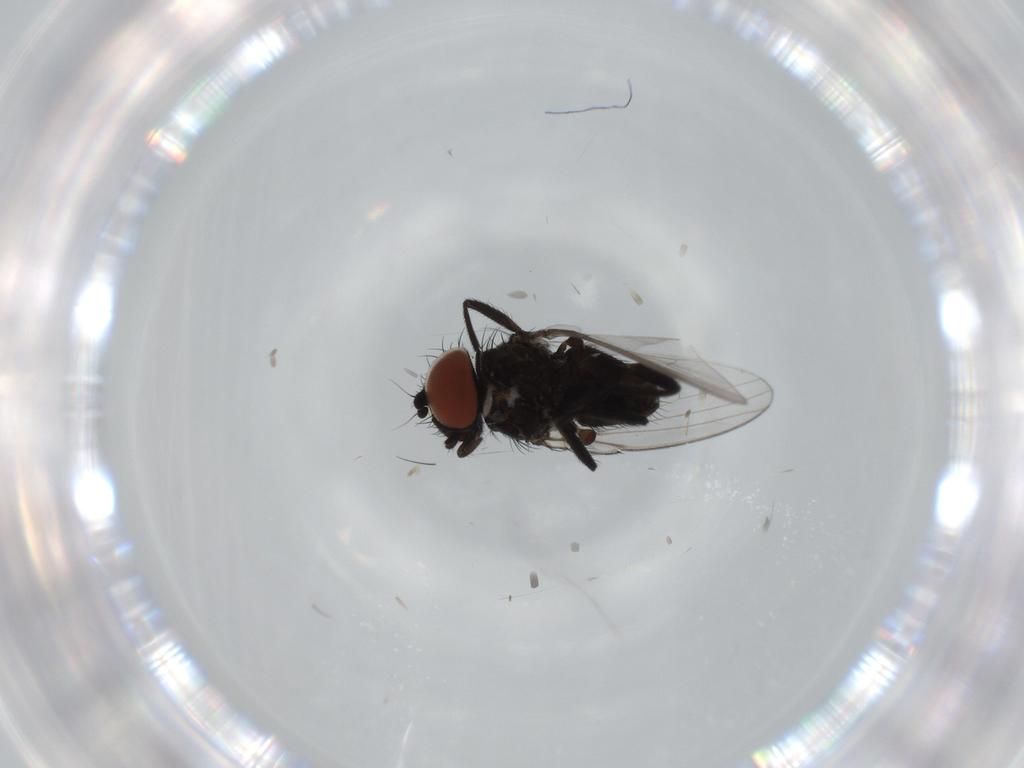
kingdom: Animalia
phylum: Arthropoda
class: Insecta
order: Diptera
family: Milichiidae
